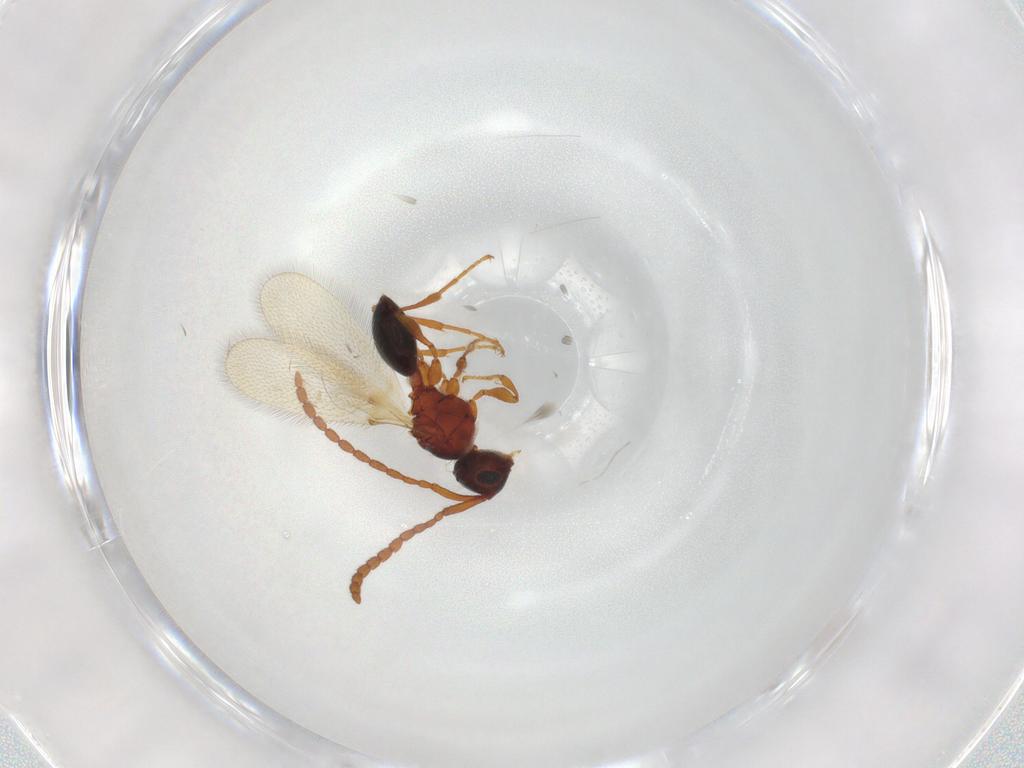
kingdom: Animalia
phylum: Arthropoda
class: Insecta
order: Hymenoptera
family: Diapriidae
